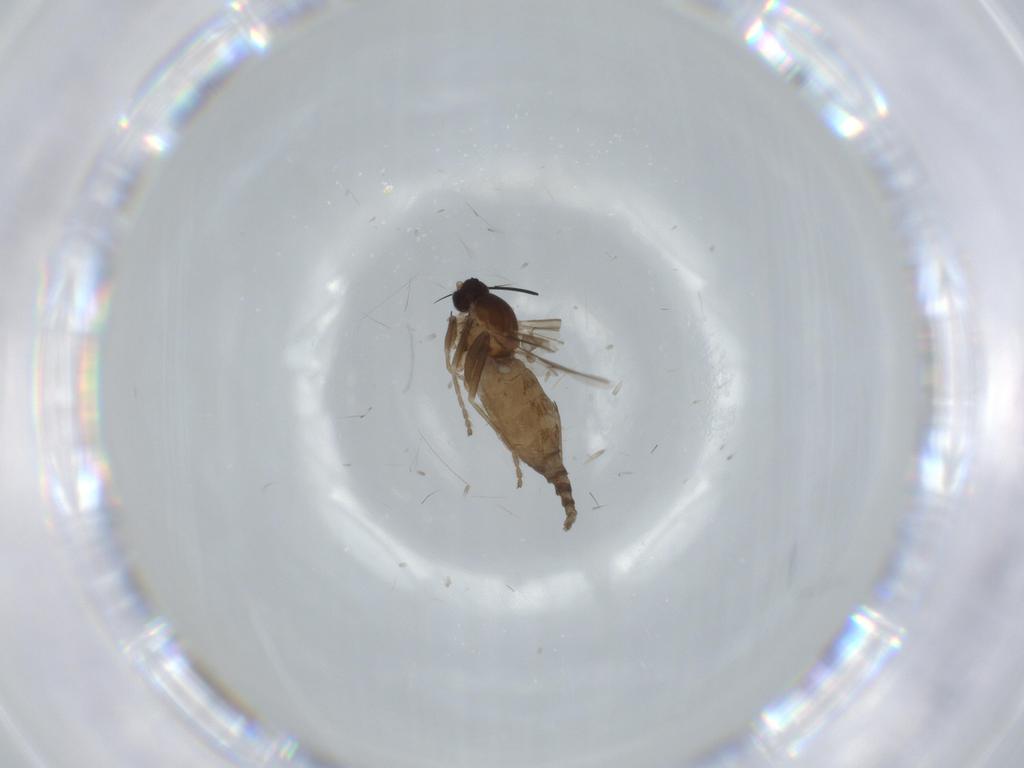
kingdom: Animalia
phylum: Arthropoda
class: Insecta
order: Diptera
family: Cecidomyiidae
